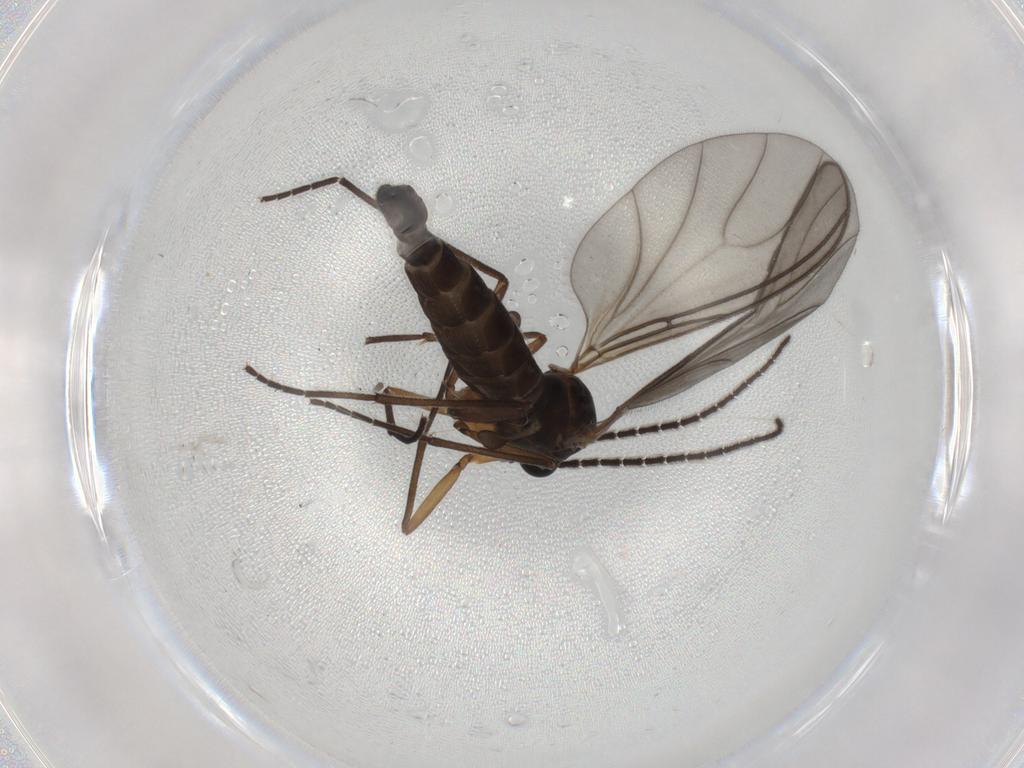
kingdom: Animalia
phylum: Arthropoda
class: Insecta
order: Diptera
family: Sciaridae
